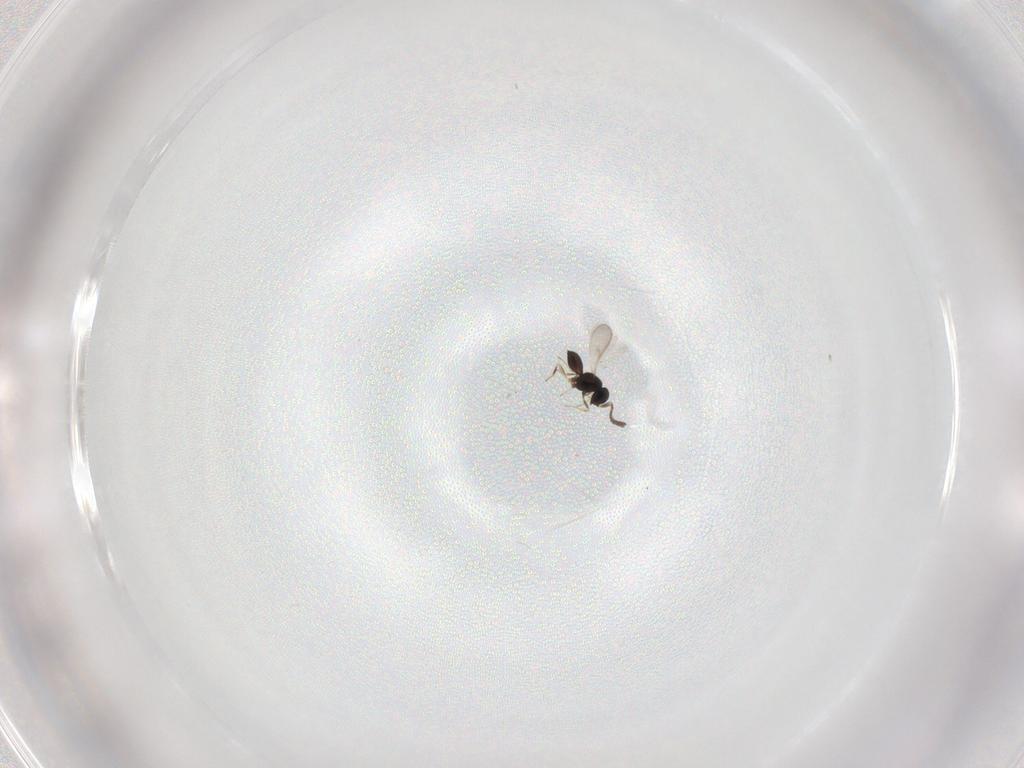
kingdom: Animalia
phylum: Arthropoda
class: Insecta
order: Hymenoptera
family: Scelionidae
